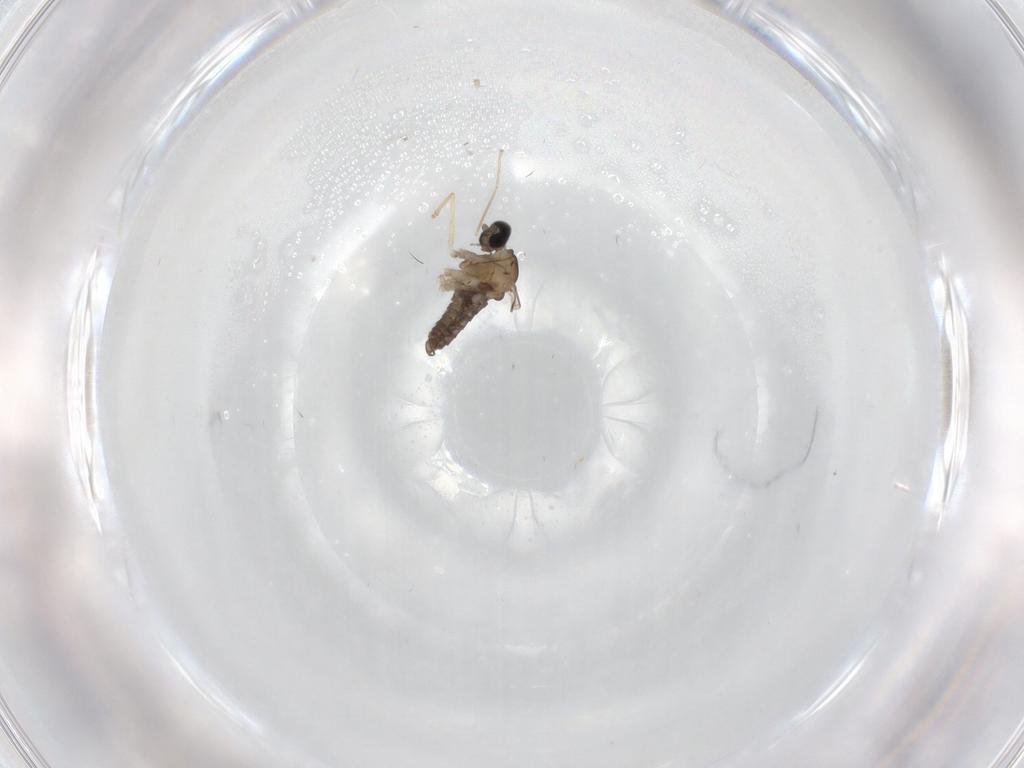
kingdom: Animalia
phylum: Arthropoda
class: Insecta
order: Diptera
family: Cecidomyiidae
